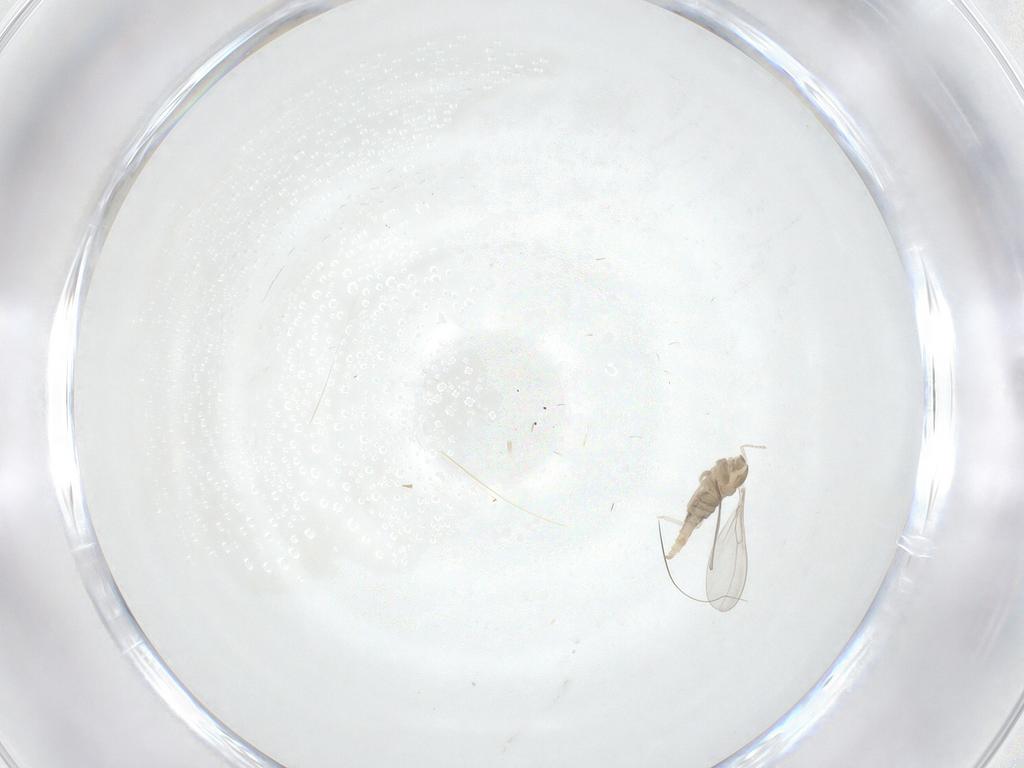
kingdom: Animalia
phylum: Arthropoda
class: Insecta
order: Diptera
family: Cecidomyiidae
